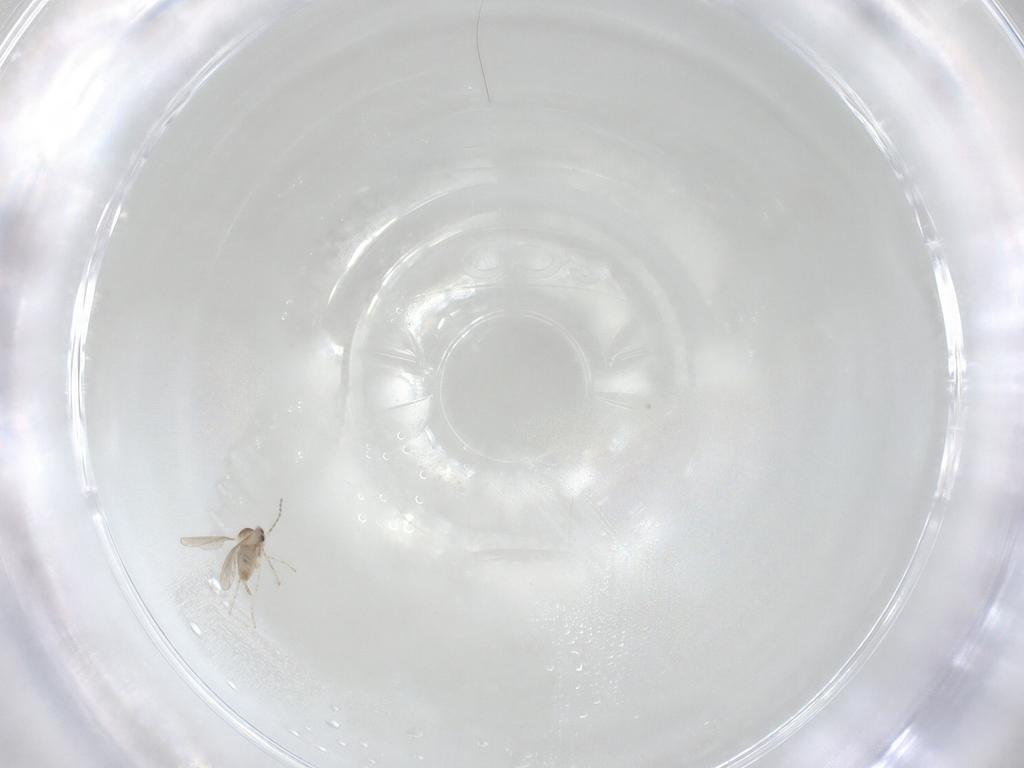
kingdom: Animalia
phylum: Arthropoda
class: Insecta
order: Diptera
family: Cecidomyiidae
